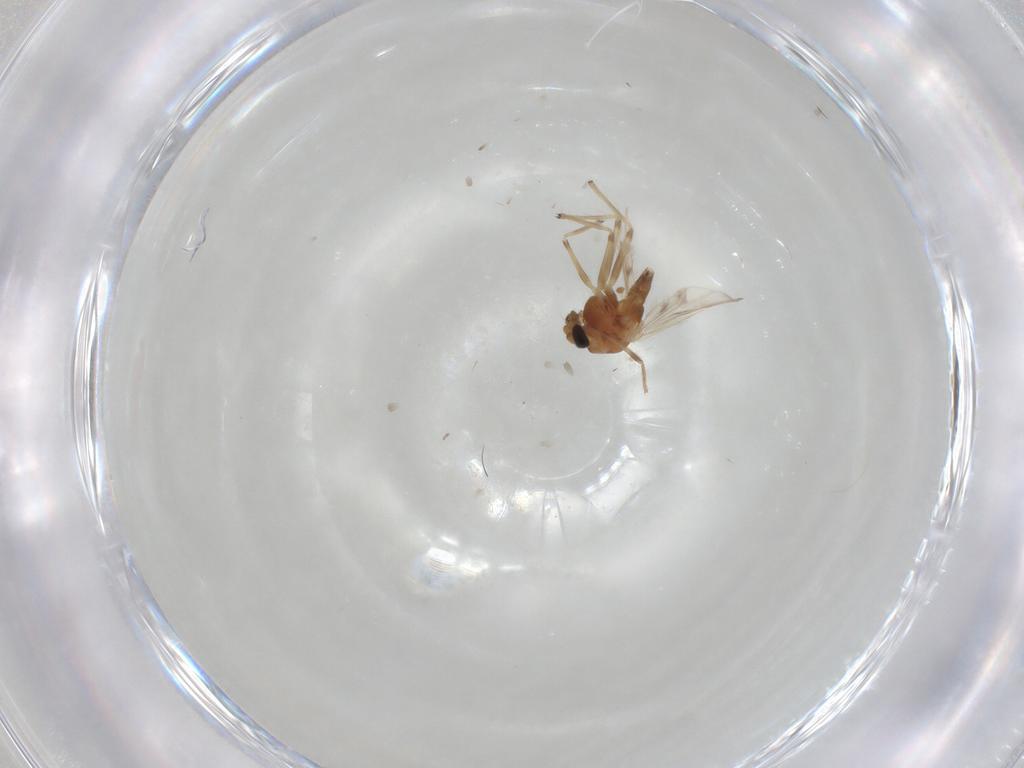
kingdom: Animalia
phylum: Arthropoda
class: Insecta
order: Diptera
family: Chironomidae
